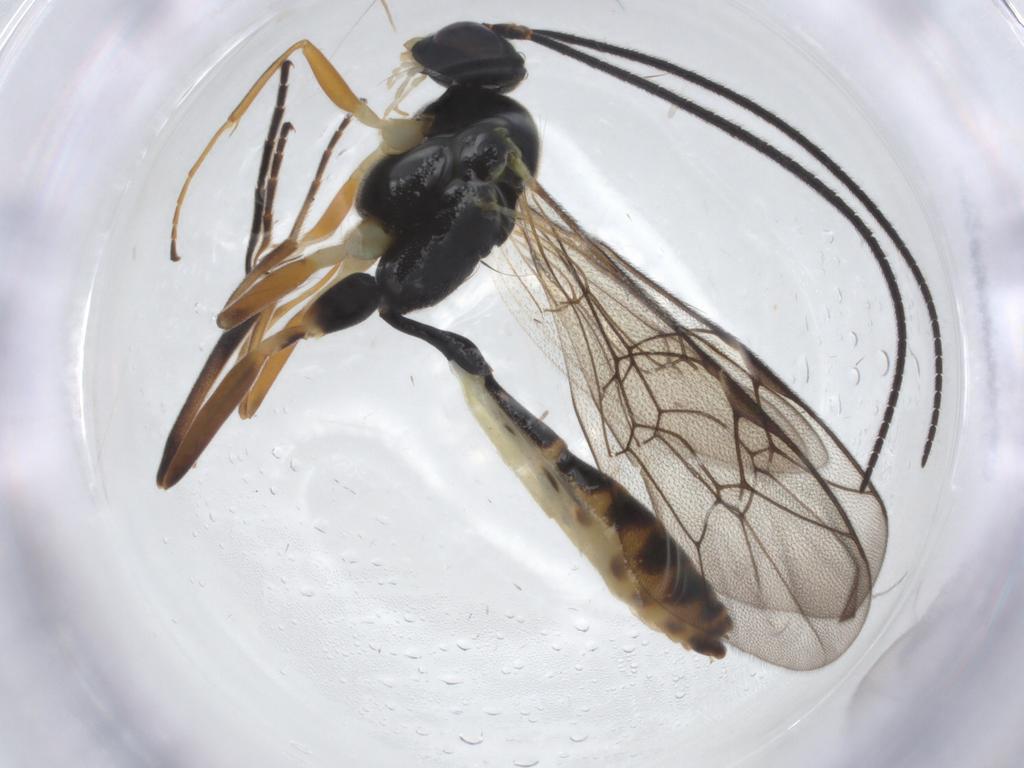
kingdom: Animalia
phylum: Arthropoda
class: Insecta
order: Hymenoptera
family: Ichneumonidae
